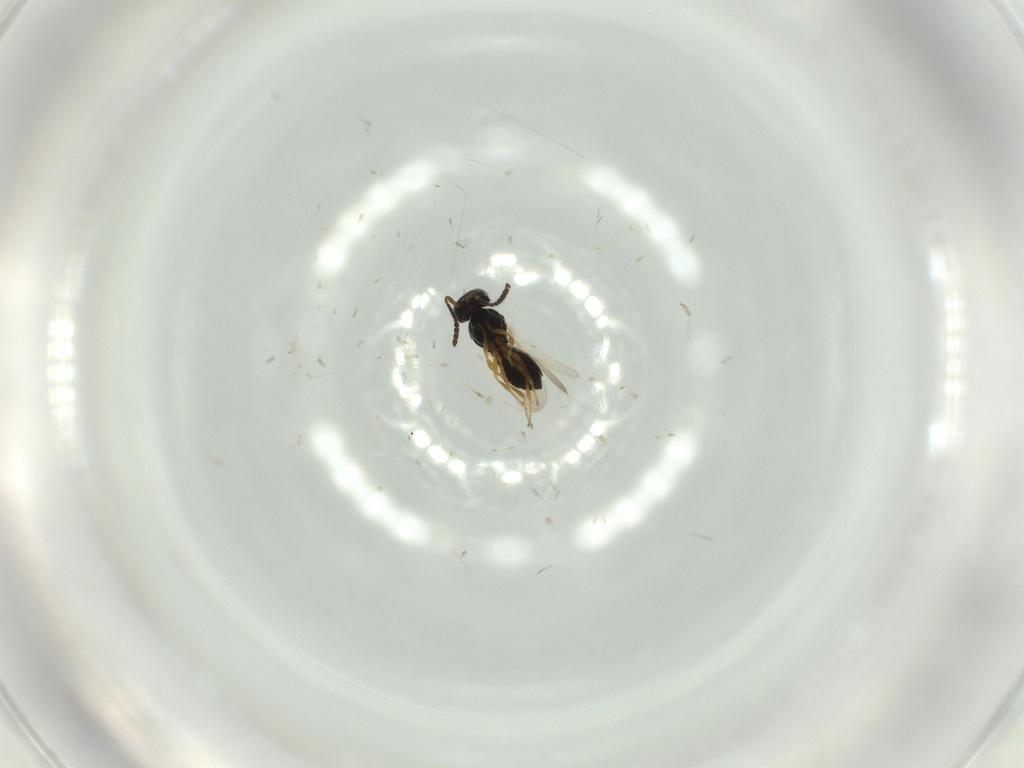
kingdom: Animalia
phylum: Arthropoda
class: Insecta
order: Hymenoptera
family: Scelionidae
